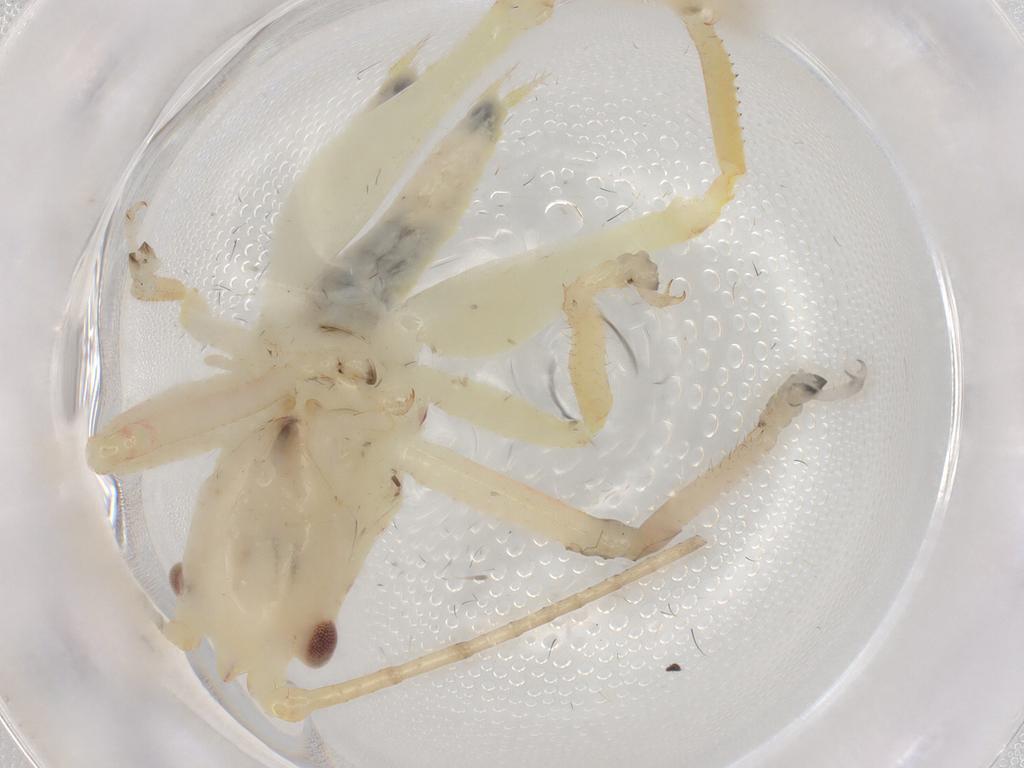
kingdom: Animalia
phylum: Arthropoda
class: Insecta
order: Orthoptera
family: Tettigoniidae
